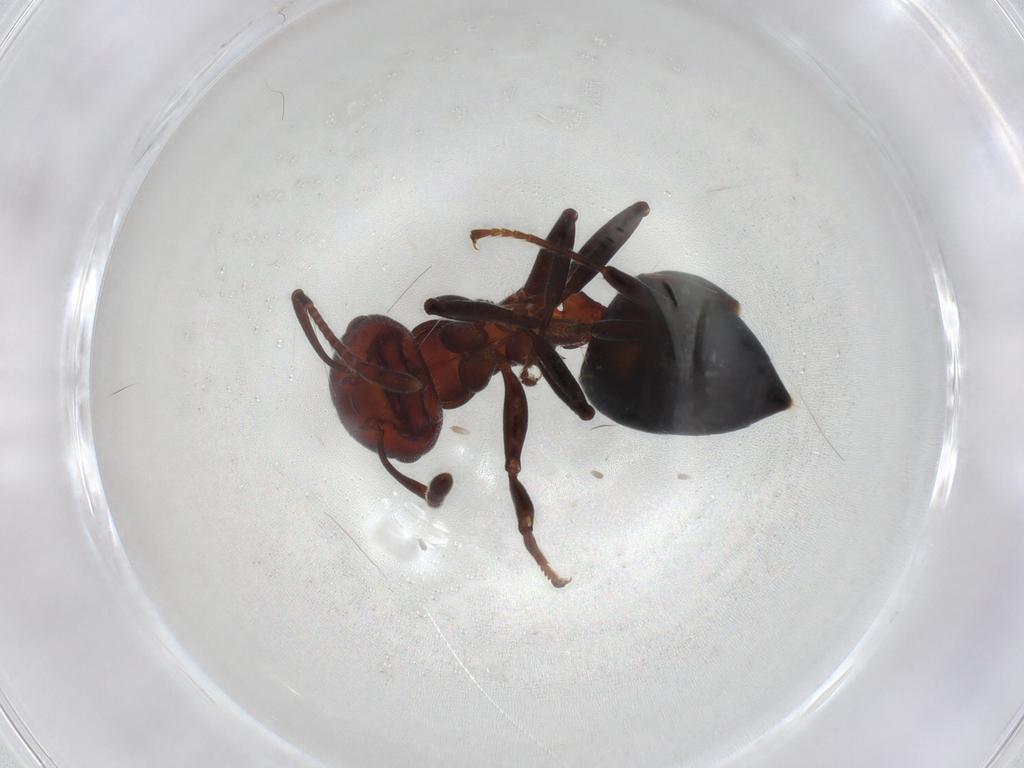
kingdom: Animalia
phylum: Arthropoda
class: Insecta
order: Hymenoptera
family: Formicidae
